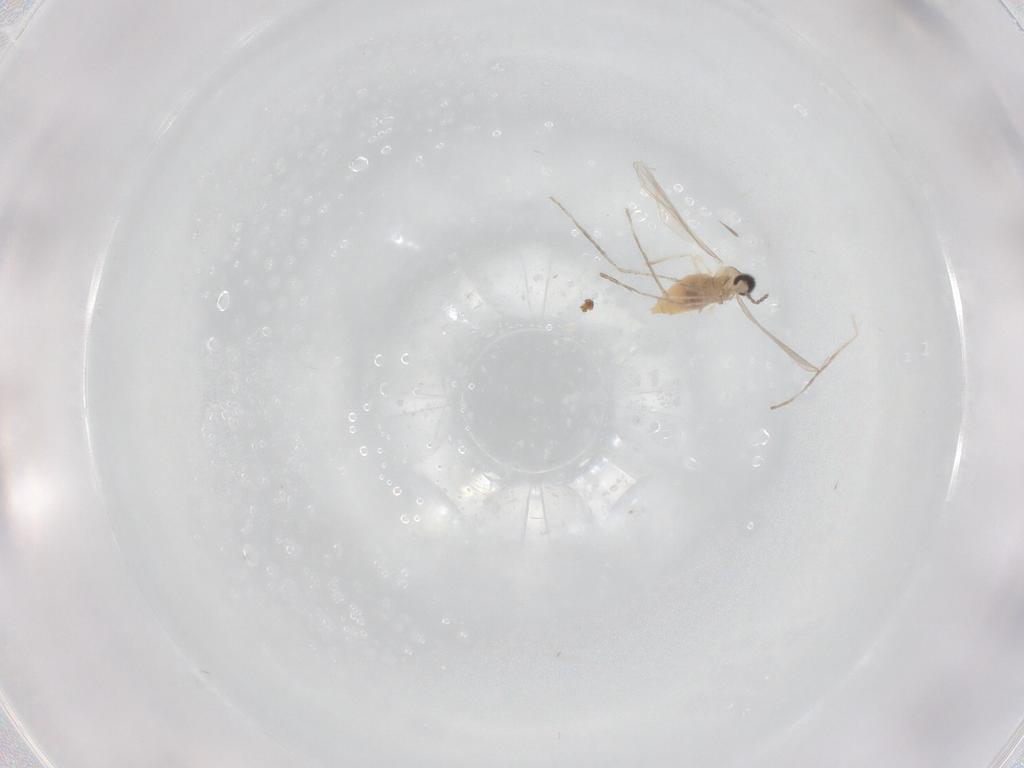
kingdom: Animalia
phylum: Arthropoda
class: Insecta
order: Diptera
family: Ceratopogonidae
